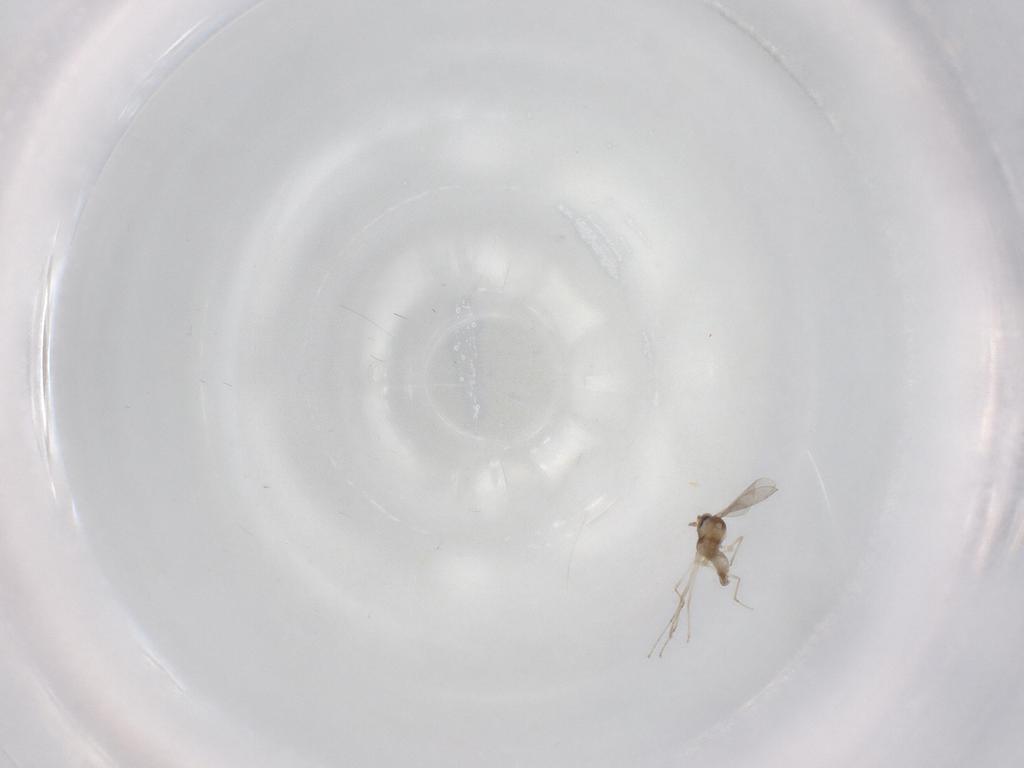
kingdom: Animalia
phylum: Arthropoda
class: Insecta
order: Diptera
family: Cecidomyiidae
